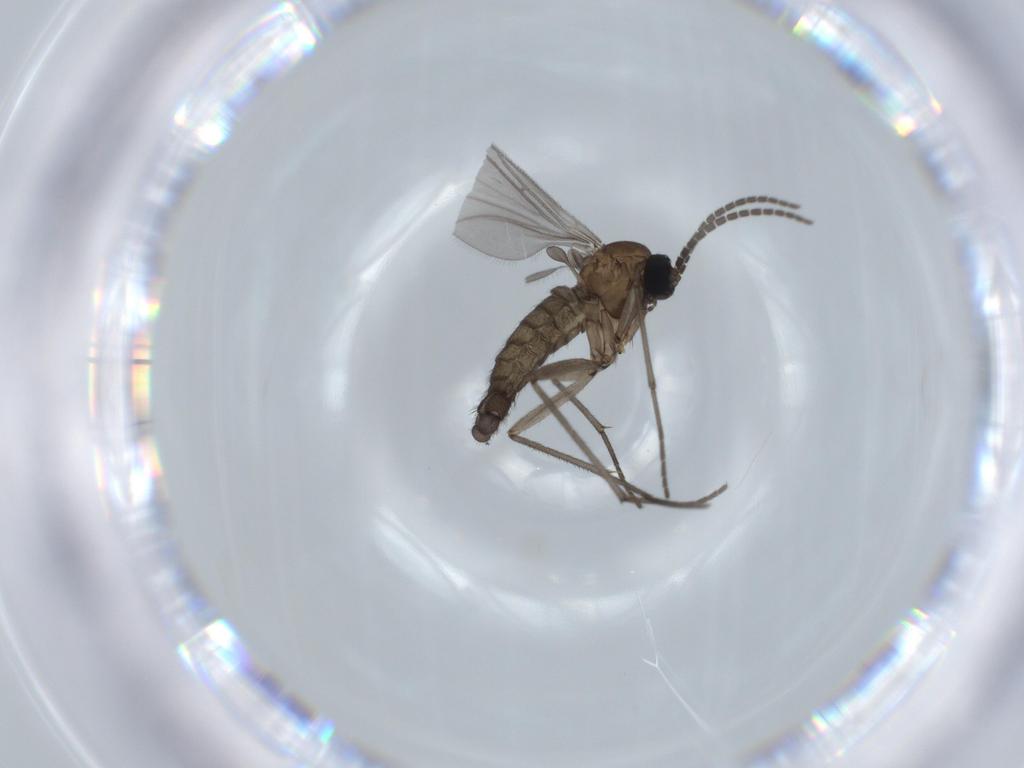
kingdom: Animalia
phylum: Arthropoda
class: Insecta
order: Diptera
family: Sciaridae
